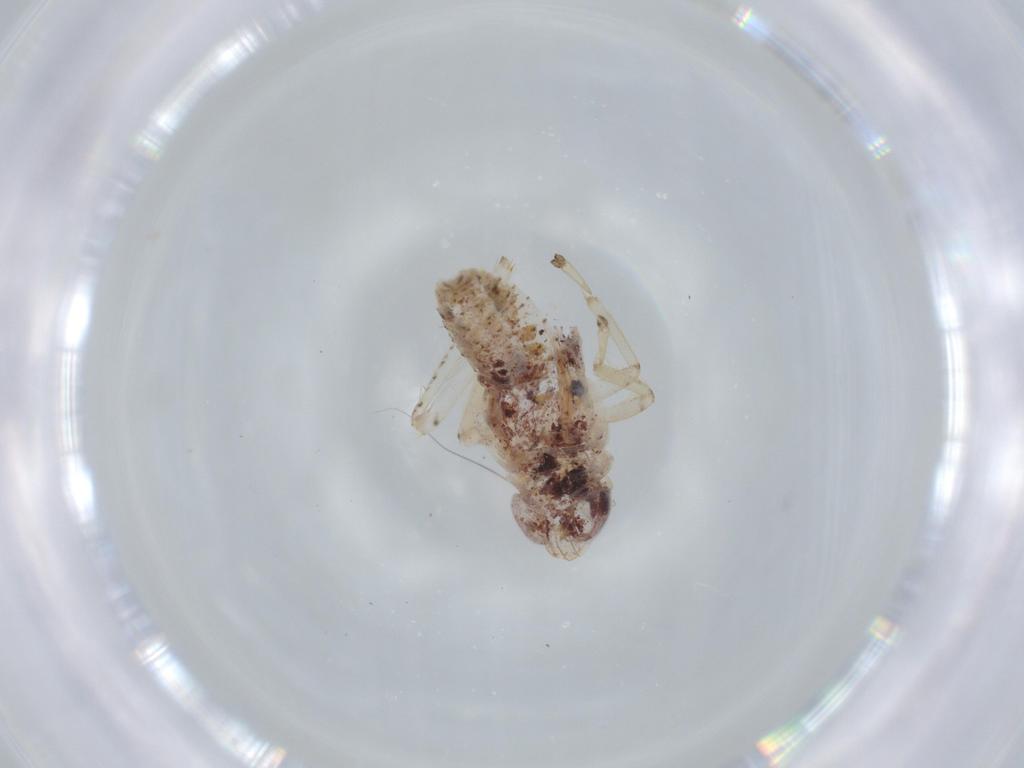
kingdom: Animalia
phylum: Arthropoda
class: Insecta
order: Hemiptera
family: Cicadellidae
